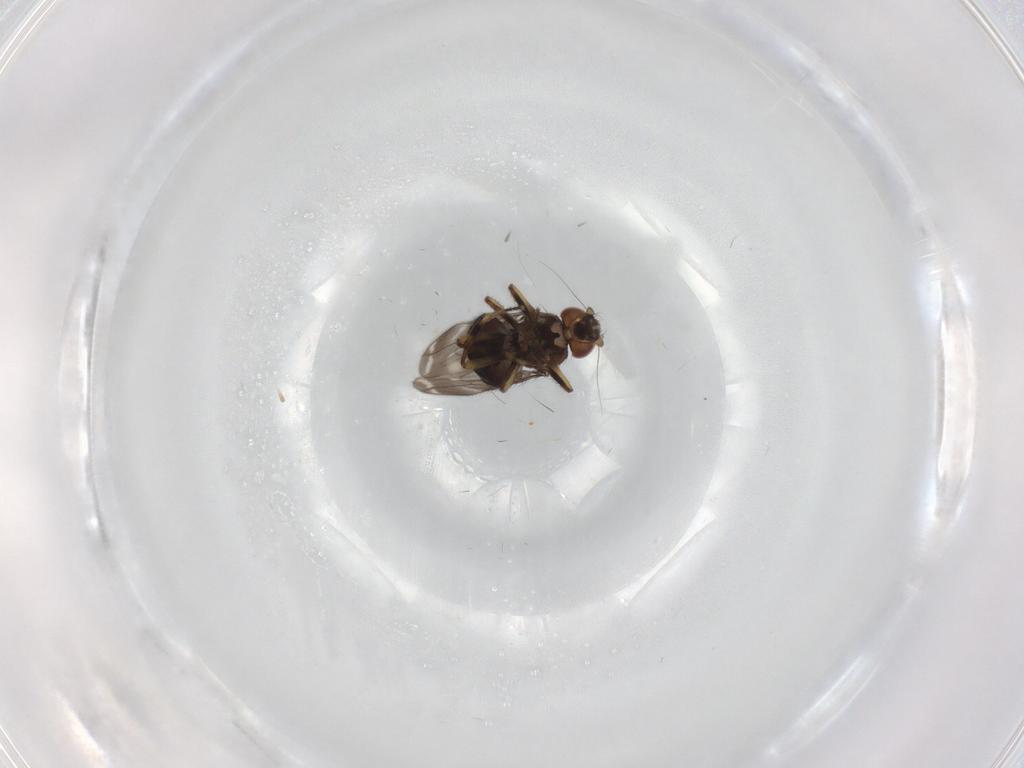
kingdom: Animalia
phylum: Arthropoda
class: Insecta
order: Diptera
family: Sphaeroceridae
